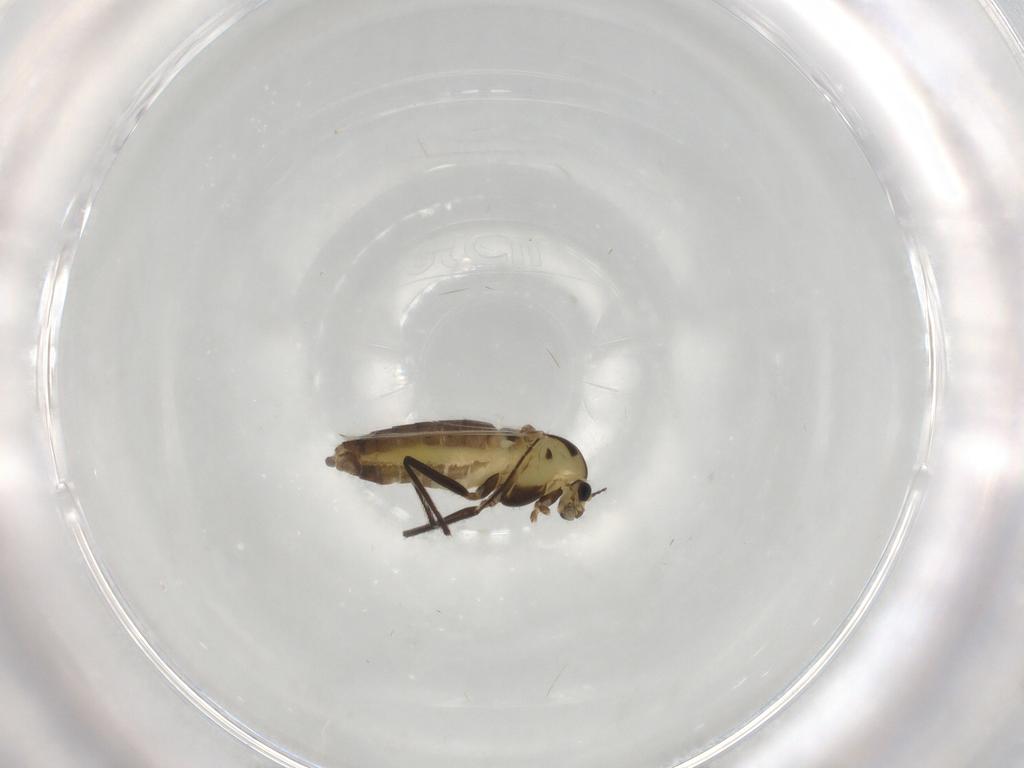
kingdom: Animalia
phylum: Arthropoda
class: Insecta
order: Diptera
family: Chironomidae
